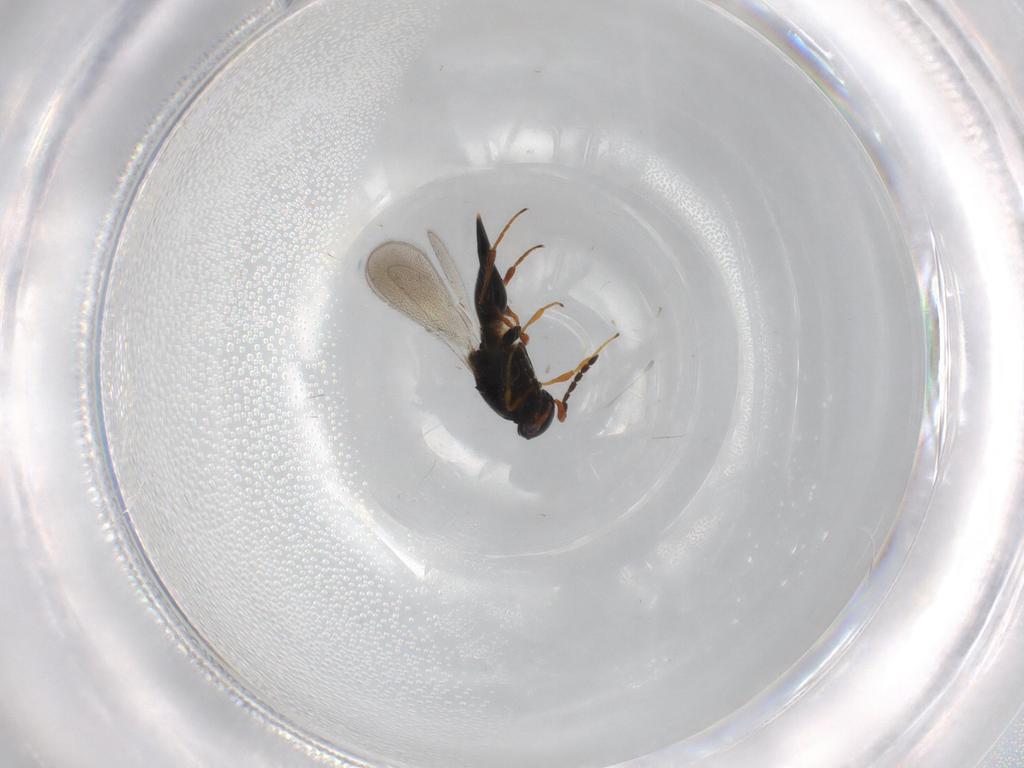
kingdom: Animalia
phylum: Arthropoda
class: Insecta
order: Hymenoptera
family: Platygastridae
